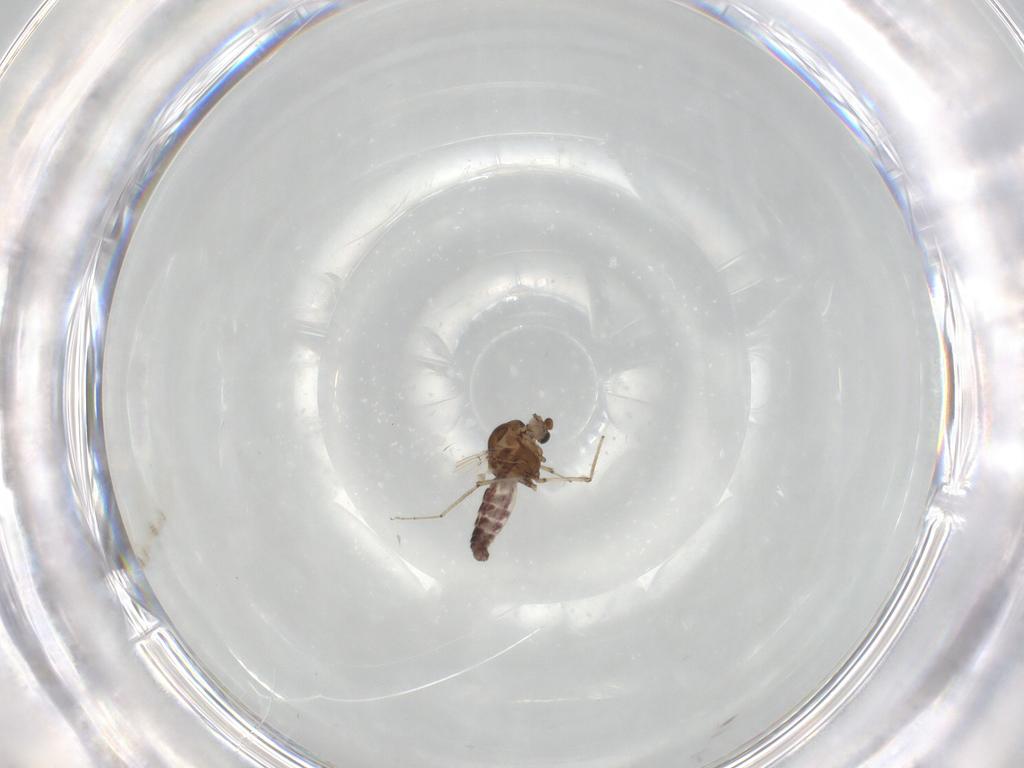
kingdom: Animalia
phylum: Arthropoda
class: Insecta
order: Diptera
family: Ceratopogonidae
